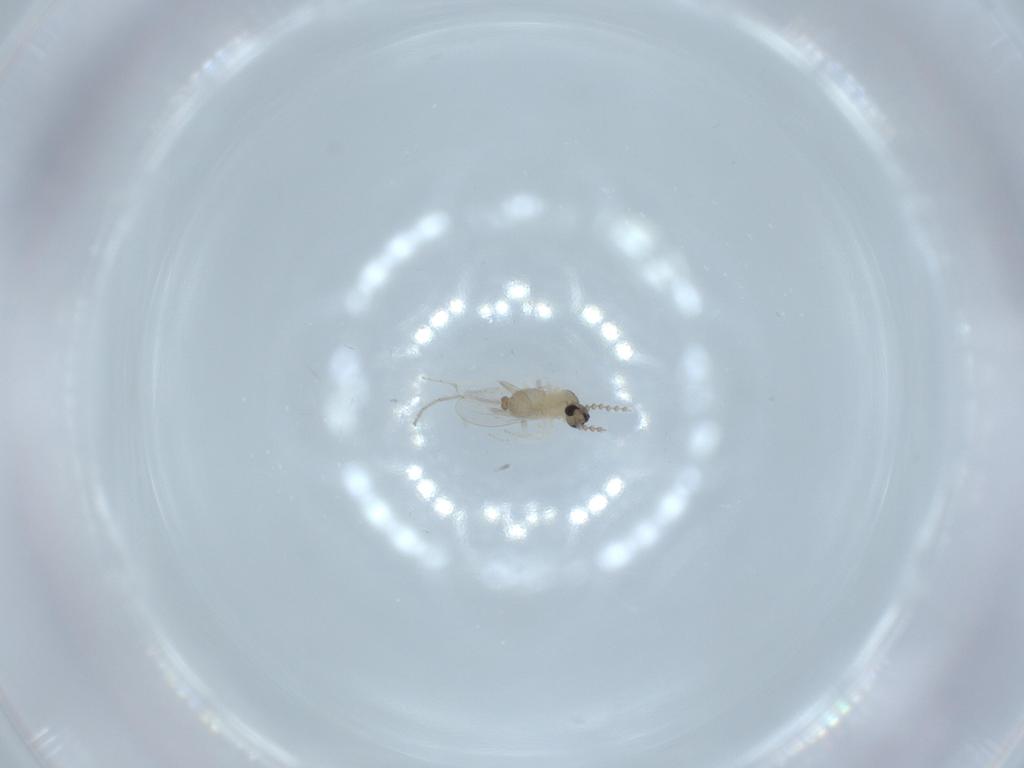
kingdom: Animalia
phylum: Arthropoda
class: Insecta
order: Diptera
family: Cecidomyiidae
